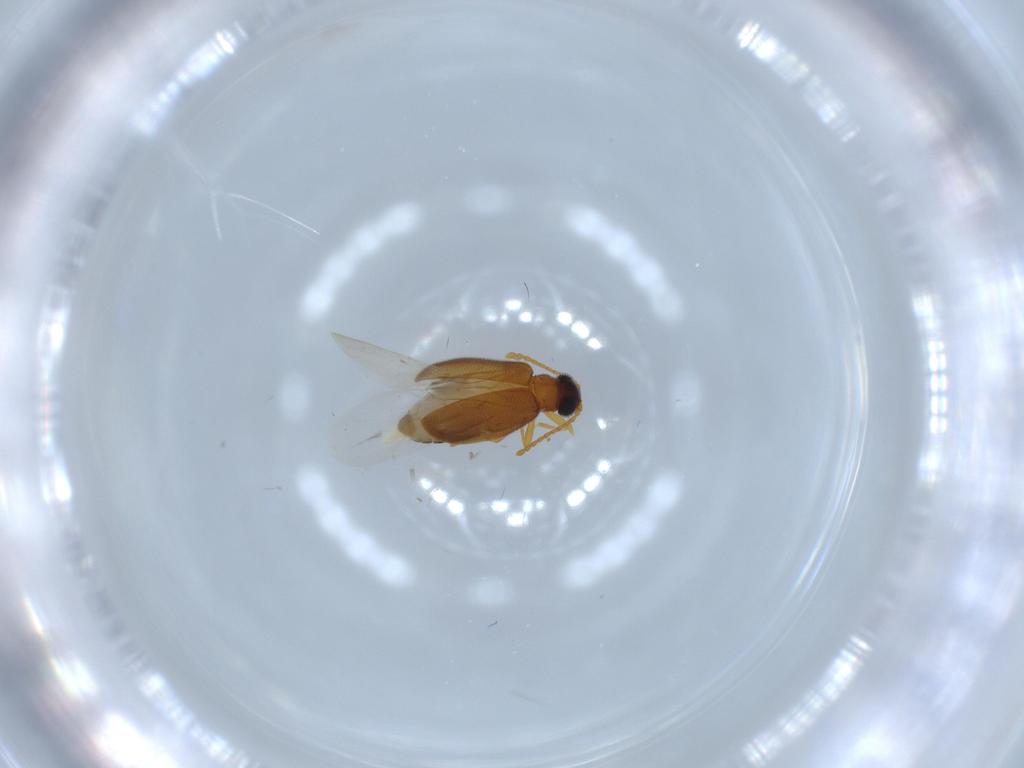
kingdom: Animalia
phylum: Arthropoda
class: Insecta
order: Coleoptera
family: Aderidae
